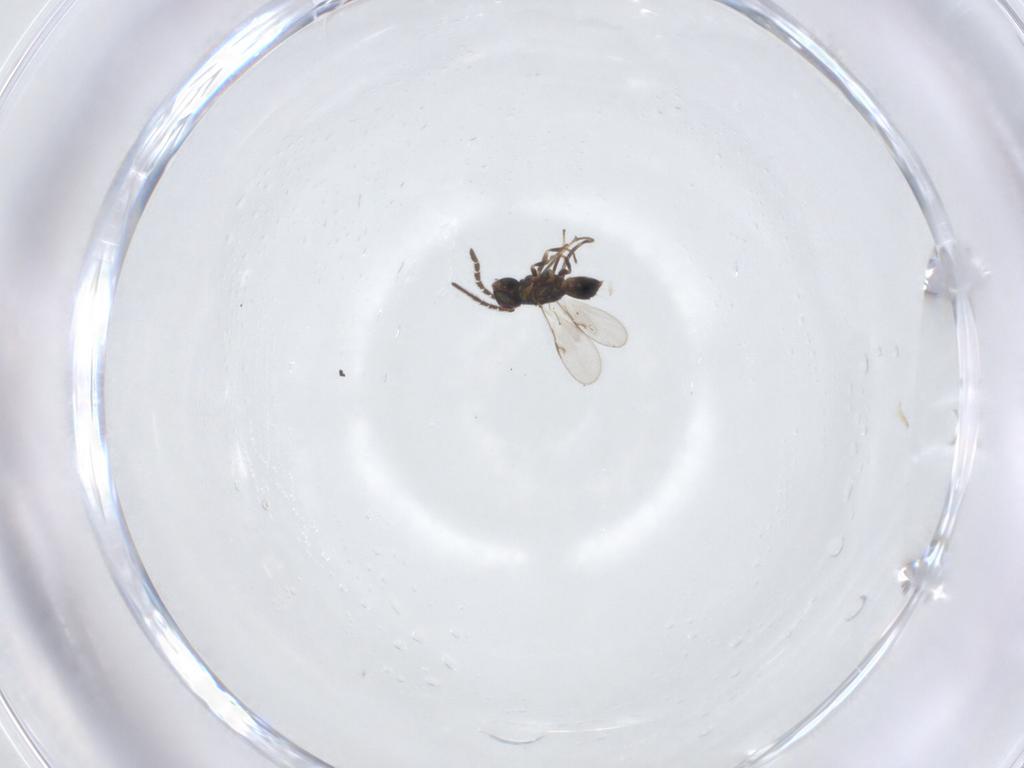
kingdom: Animalia
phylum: Arthropoda
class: Insecta
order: Hymenoptera
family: Encyrtidae
